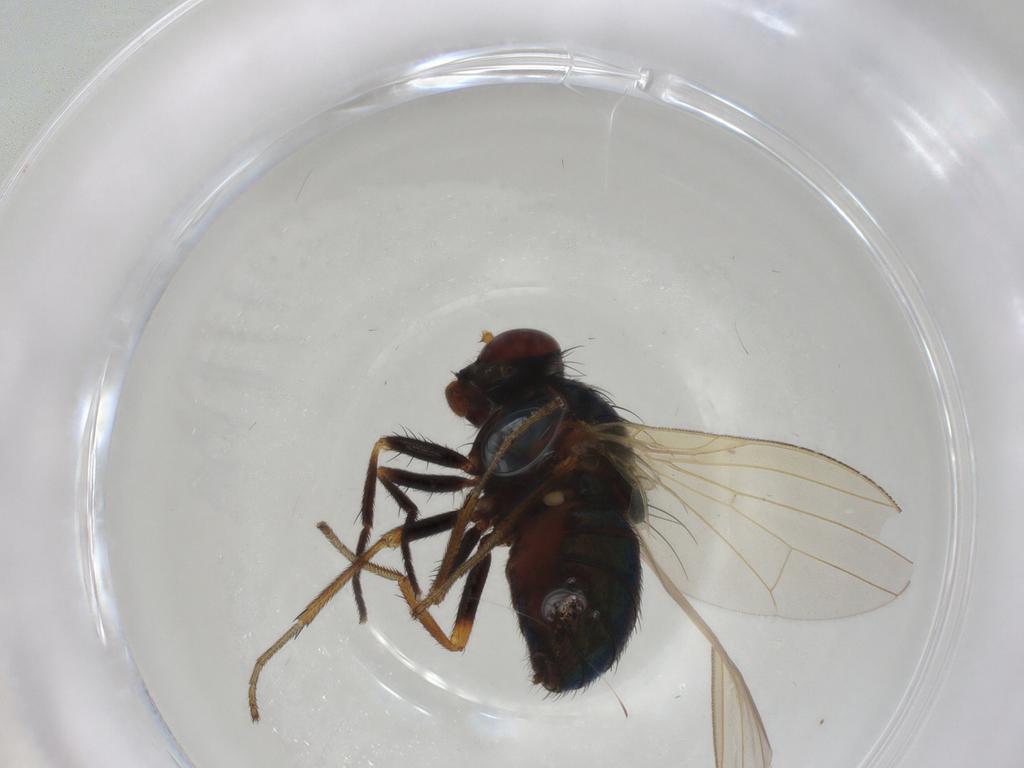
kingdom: Animalia
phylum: Arthropoda
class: Insecta
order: Diptera
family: Lauxaniidae
